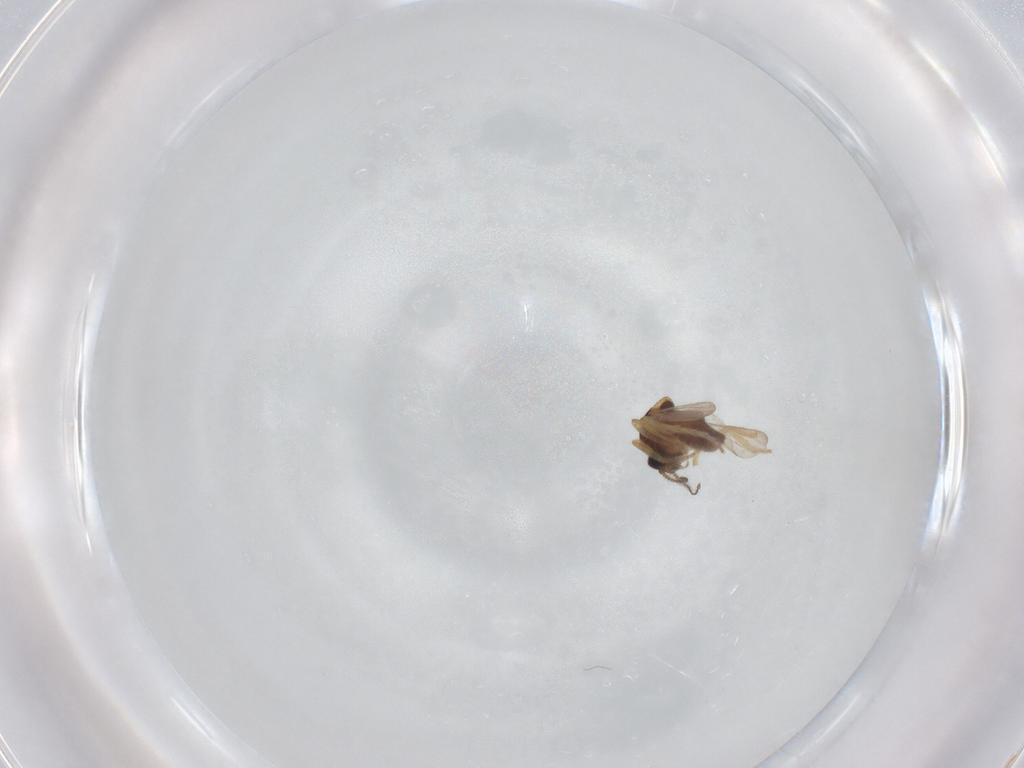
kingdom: Animalia
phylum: Arthropoda
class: Insecta
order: Diptera
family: Ceratopogonidae
